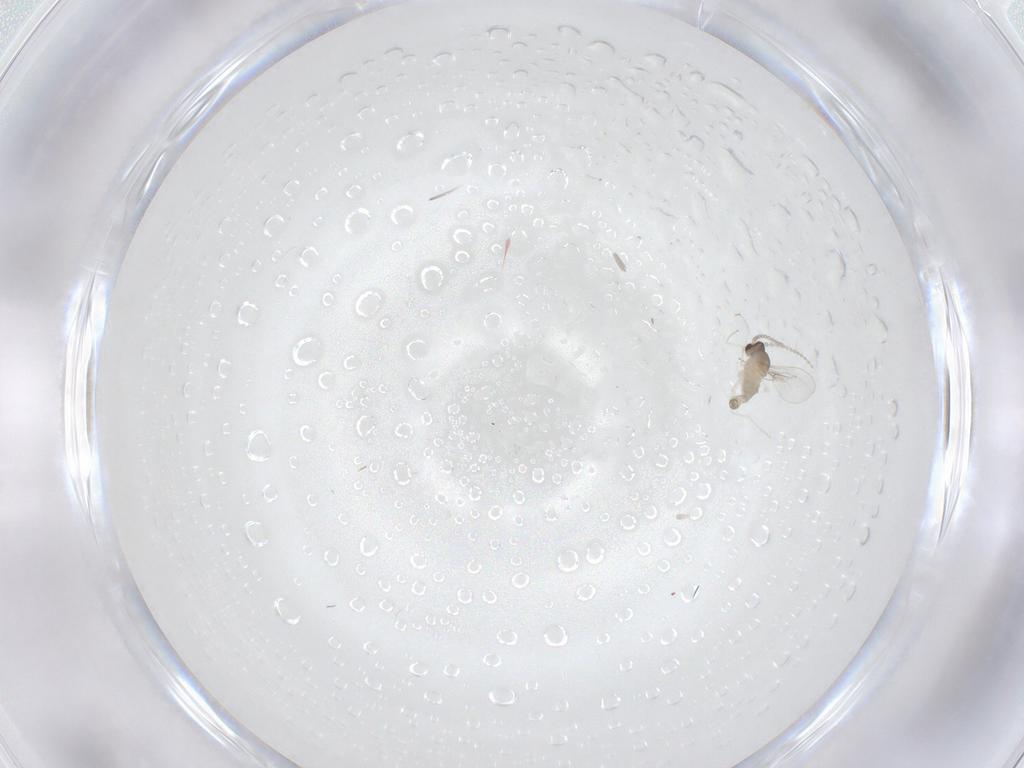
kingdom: Animalia
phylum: Arthropoda
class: Insecta
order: Diptera
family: Cecidomyiidae
